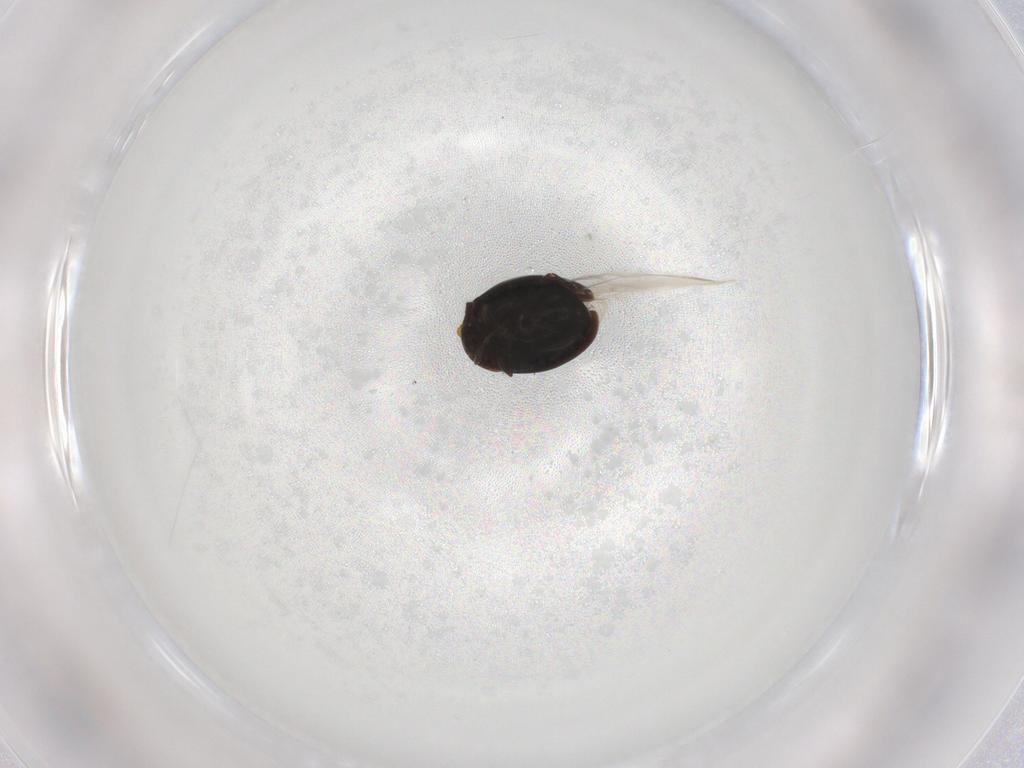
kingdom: Animalia
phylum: Arthropoda
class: Insecta
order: Coleoptera
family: Corylophidae
